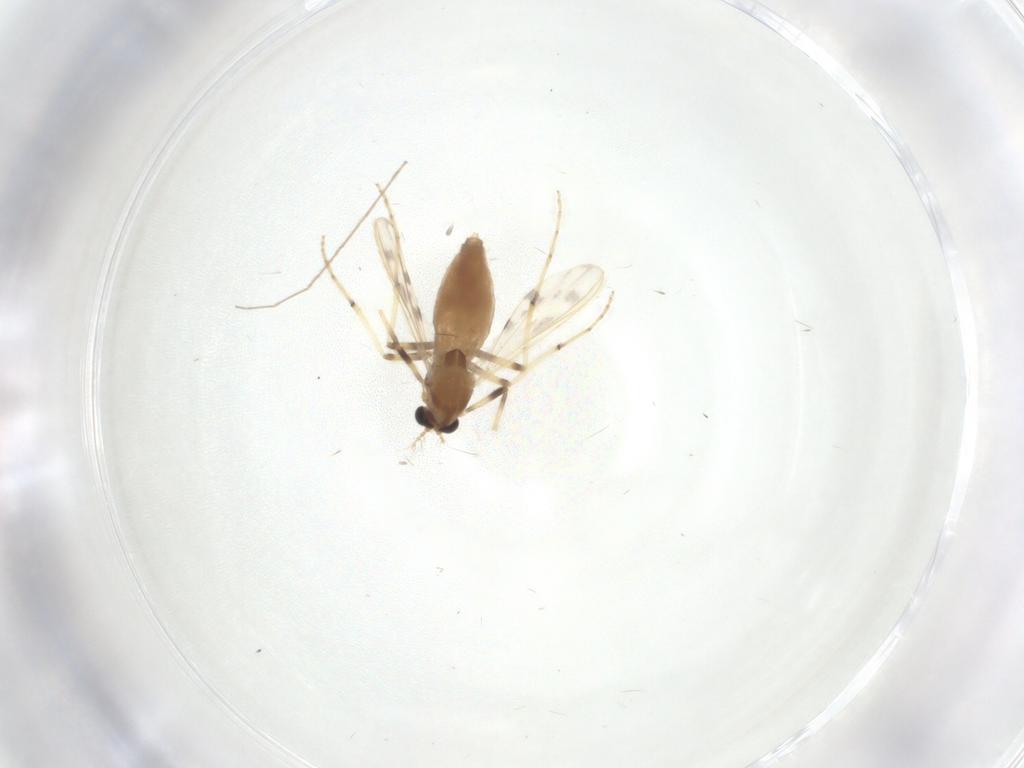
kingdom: Animalia
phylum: Arthropoda
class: Insecta
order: Diptera
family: Chironomidae
